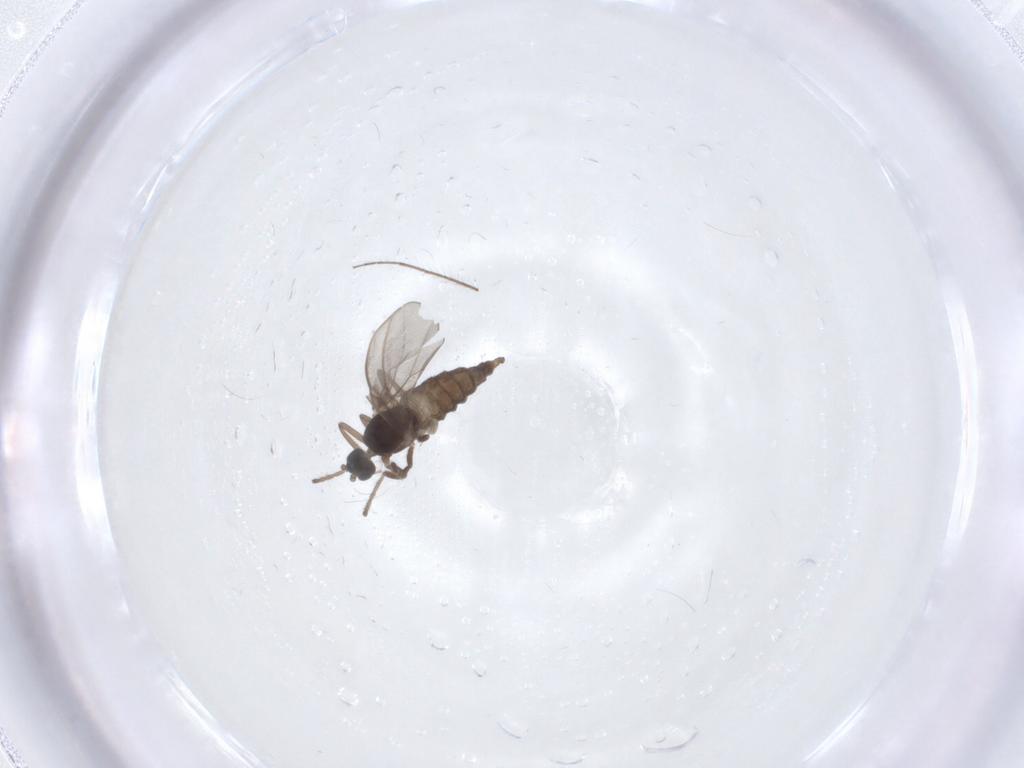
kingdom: Animalia
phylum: Arthropoda
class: Insecta
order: Diptera
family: Cecidomyiidae
